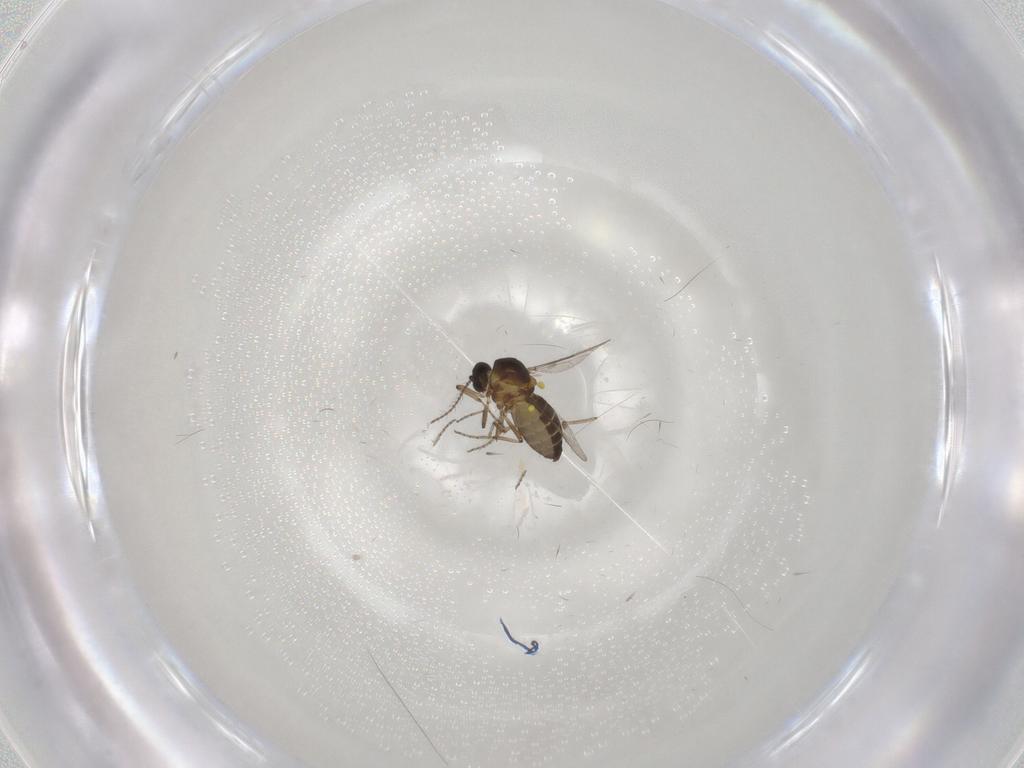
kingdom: Animalia
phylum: Arthropoda
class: Insecta
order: Diptera
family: Ceratopogonidae
